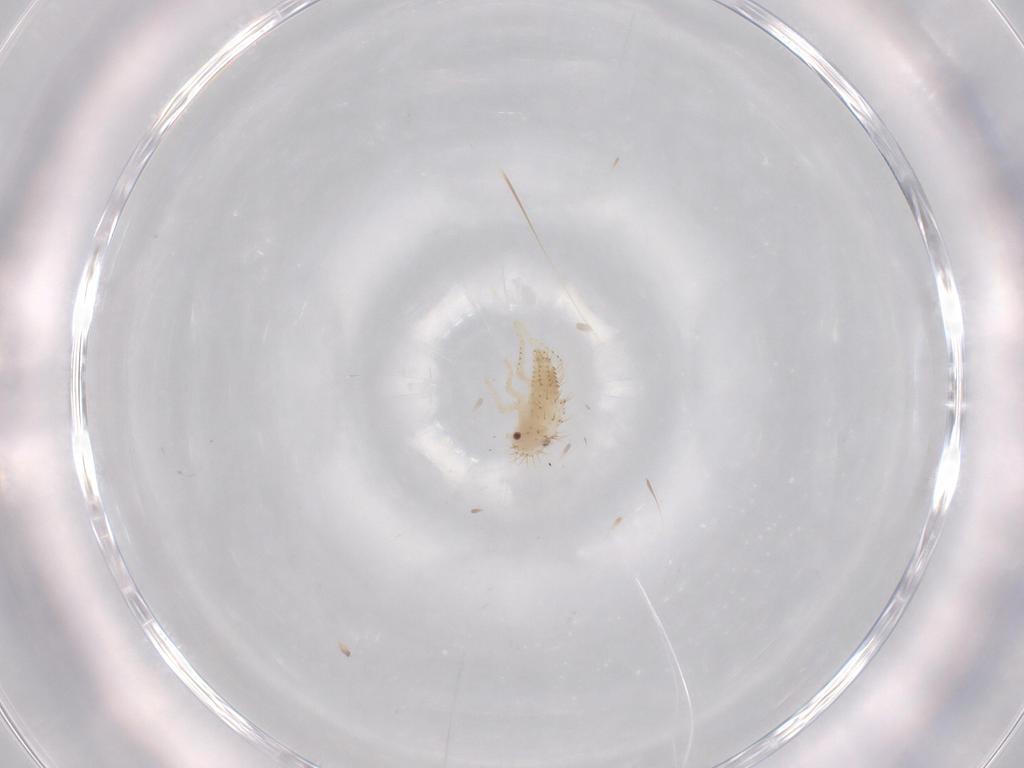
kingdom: Animalia
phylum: Arthropoda
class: Insecta
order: Hemiptera
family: Cicadellidae
